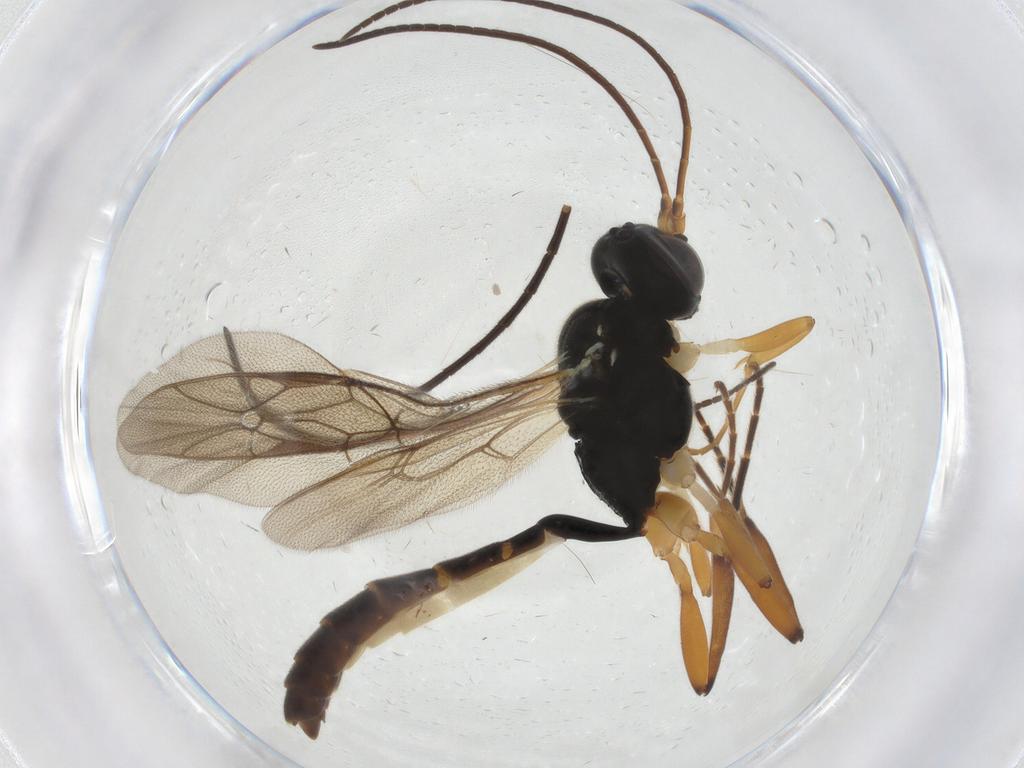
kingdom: Animalia
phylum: Arthropoda
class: Insecta
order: Hymenoptera
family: Ichneumonidae
